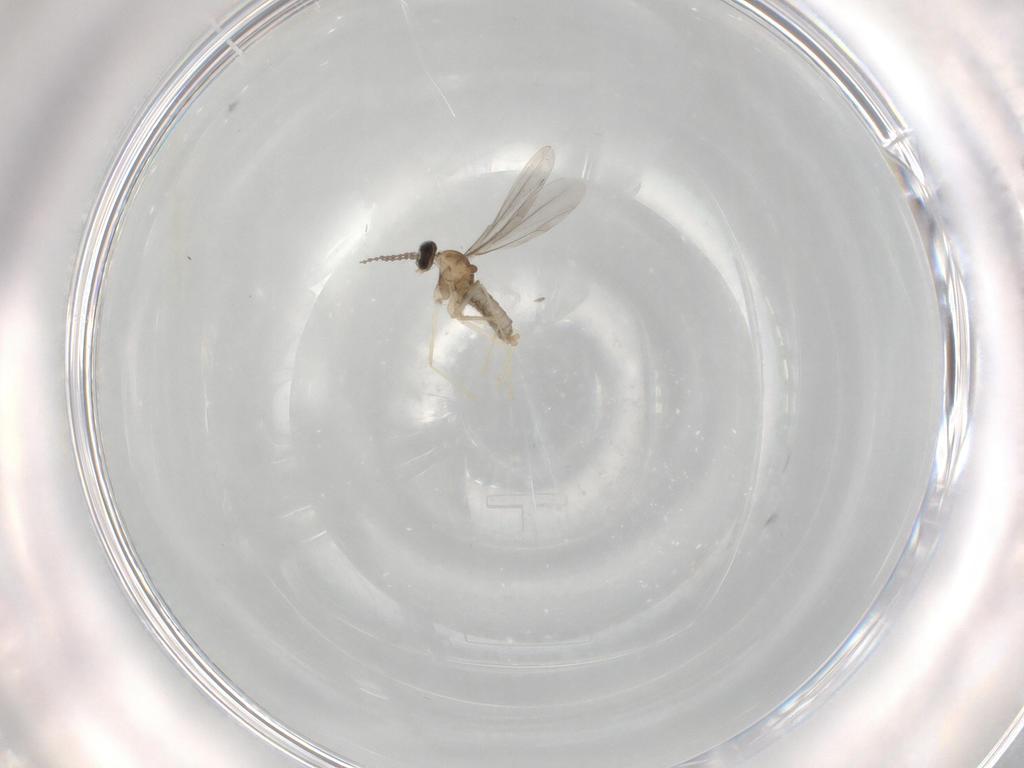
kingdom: Animalia
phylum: Arthropoda
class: Insecta
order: Diptera
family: Cecidomyiidae
